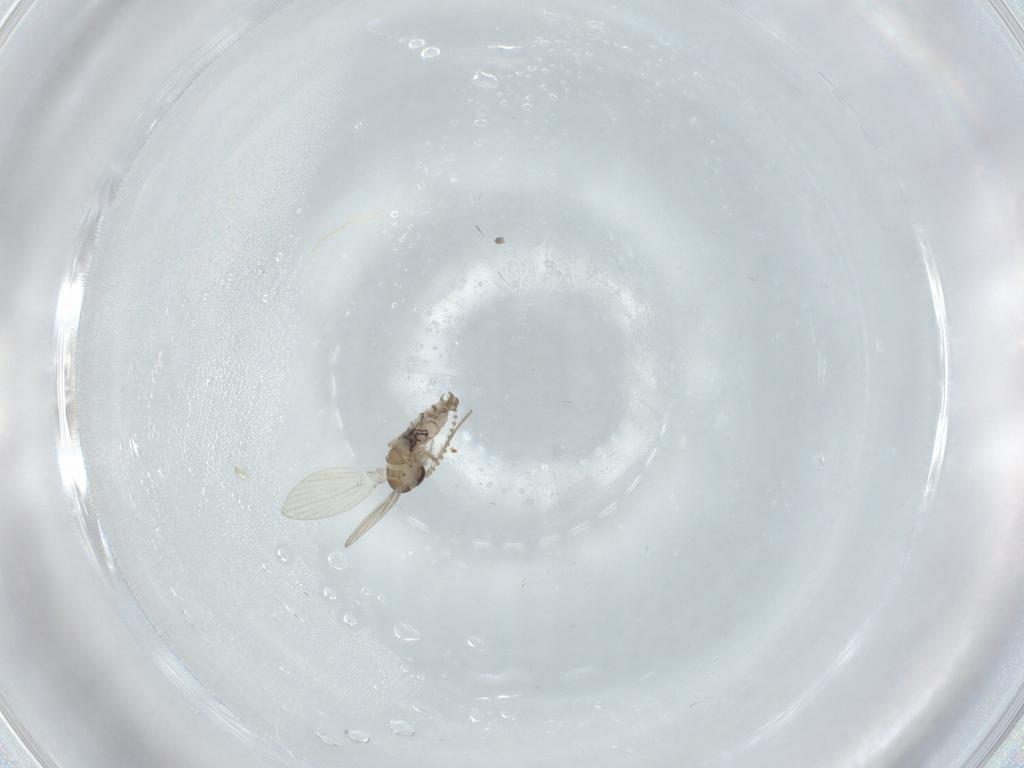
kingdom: Animalia
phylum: Arthropoda
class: Insecta
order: Diptera
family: Psychodidae
